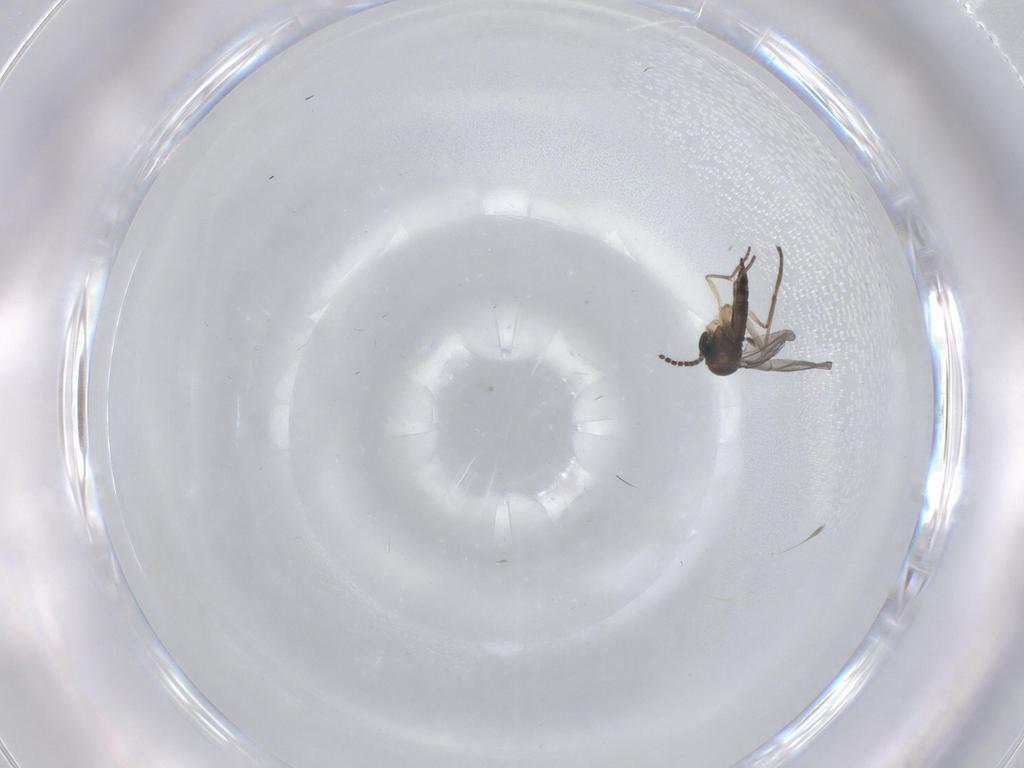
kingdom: Animalia
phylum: Arthropoda
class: Insecta
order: Diptera
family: Sciaridae
